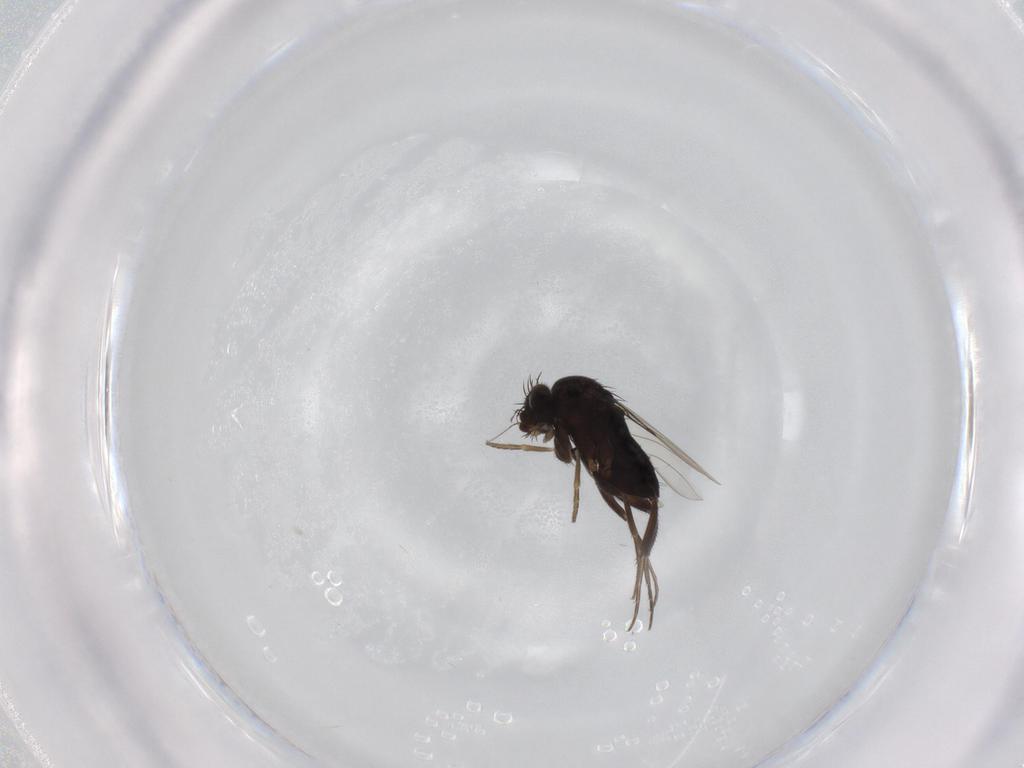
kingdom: Animalia
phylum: Arthropoda
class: Insecta
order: Diptera
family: Phoridae
